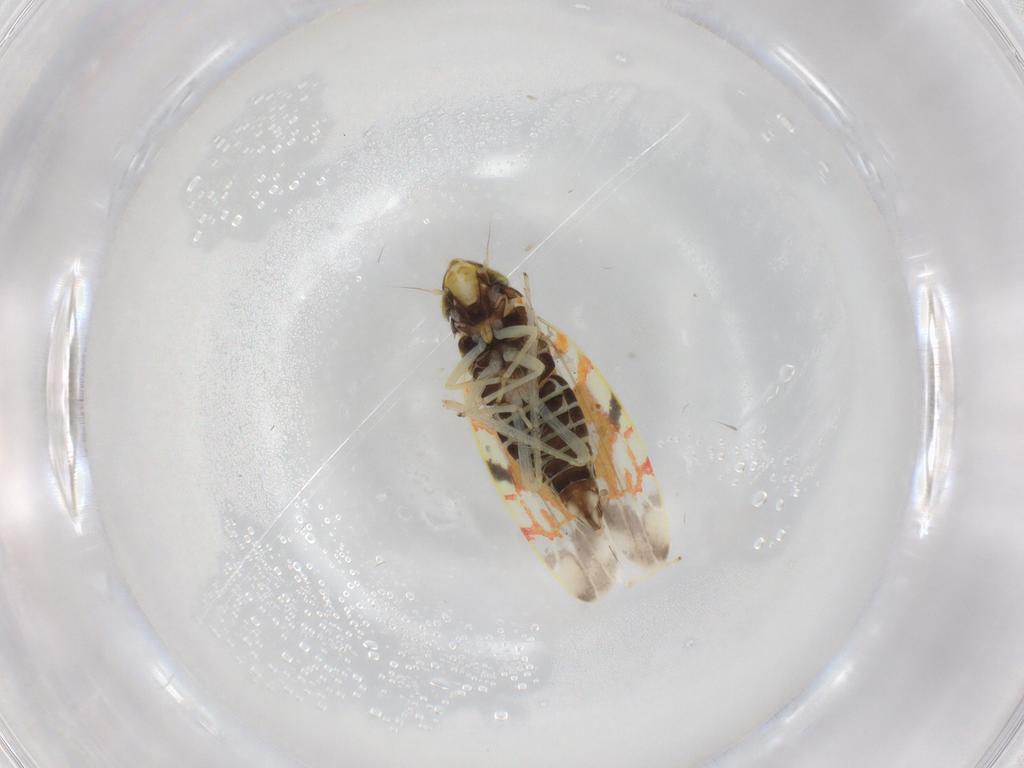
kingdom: Animalia
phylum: Arthropoda
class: Insecta
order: Hemiptera
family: Cicadellidae
